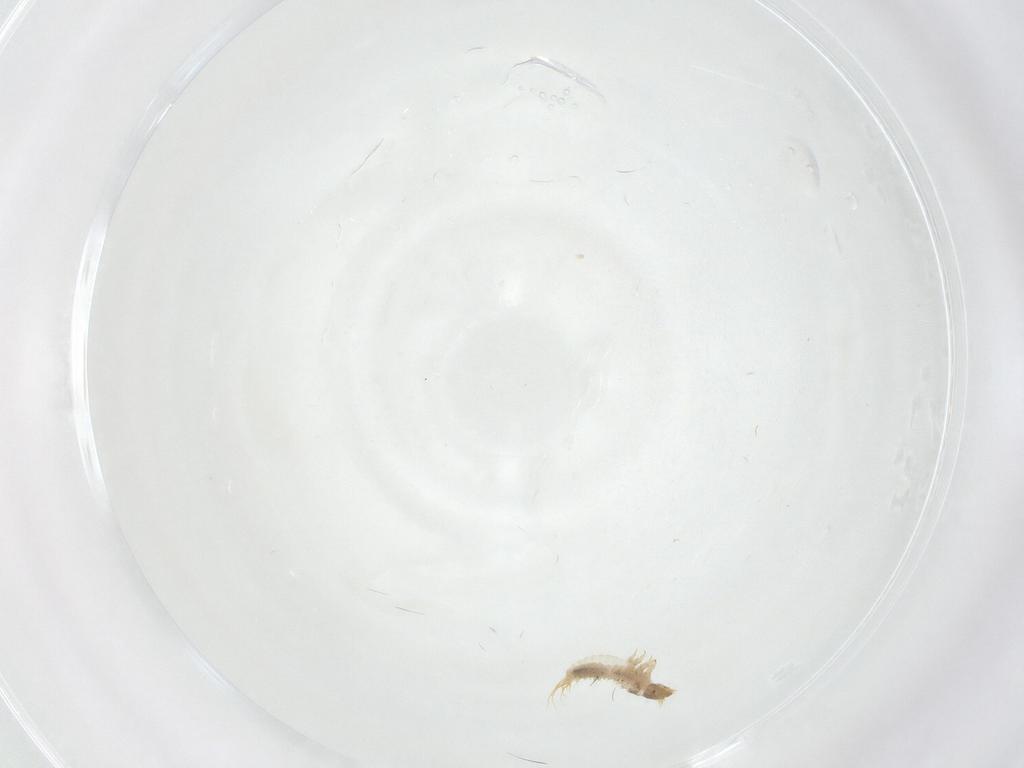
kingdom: Animalia
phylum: Arthropoda
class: Insecta
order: Coleoptera
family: Nitidulidae
